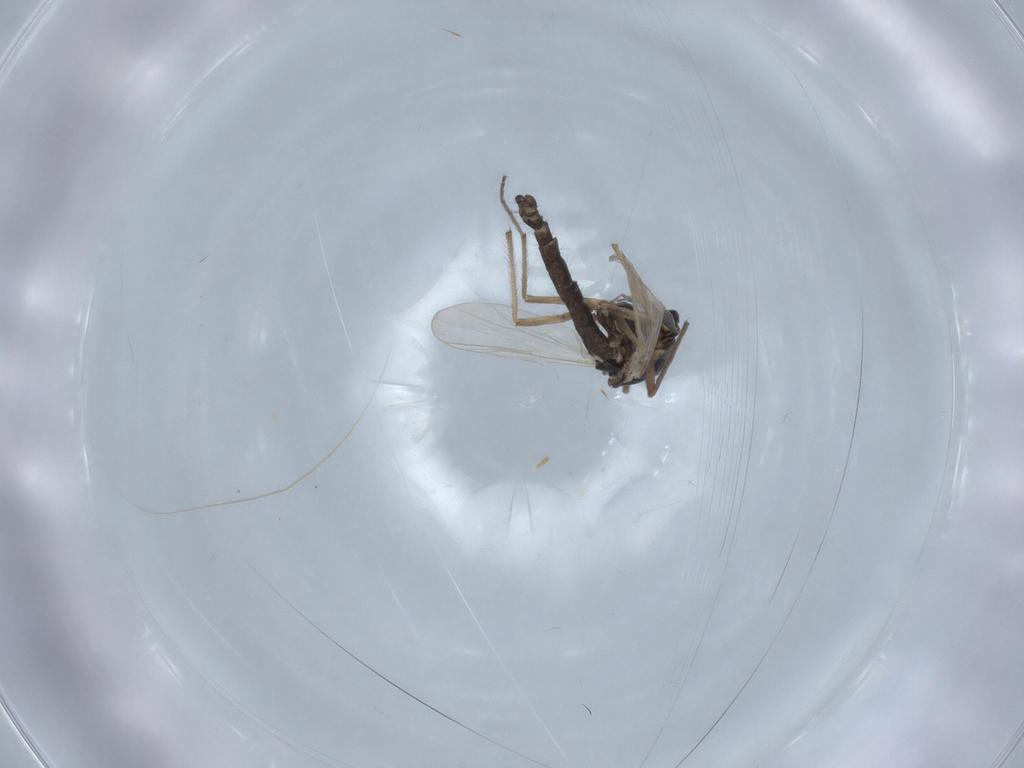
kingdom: Animalia
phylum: Arthropoda
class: Insecta
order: Diptera
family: Chironomidae
